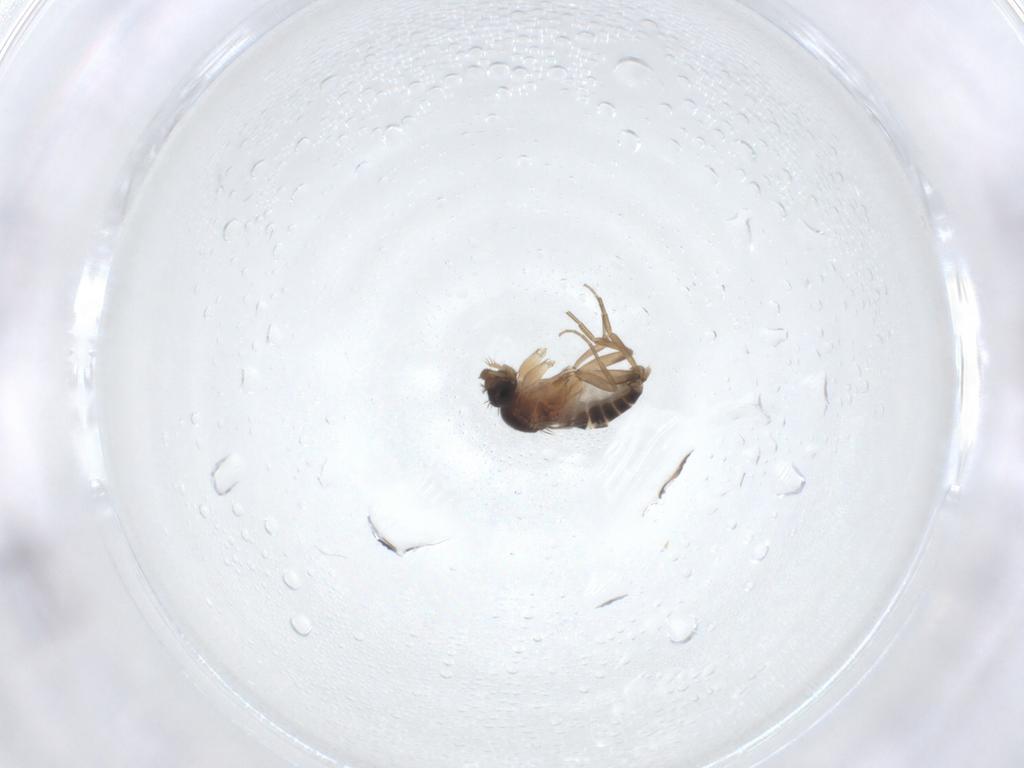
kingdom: Animalia
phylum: Arthropoda
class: Insecta
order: Diptera
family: Phoridae
